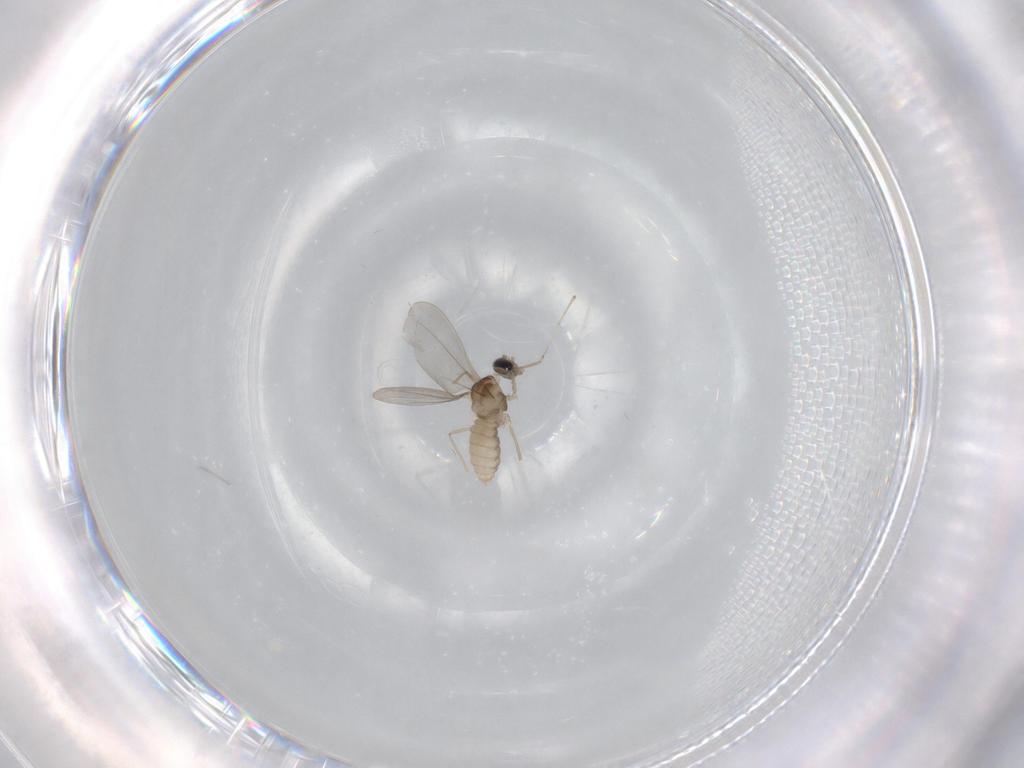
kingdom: Animalia
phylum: Arthropoda
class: Insecta
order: Diptera
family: Cecidomyiidae
